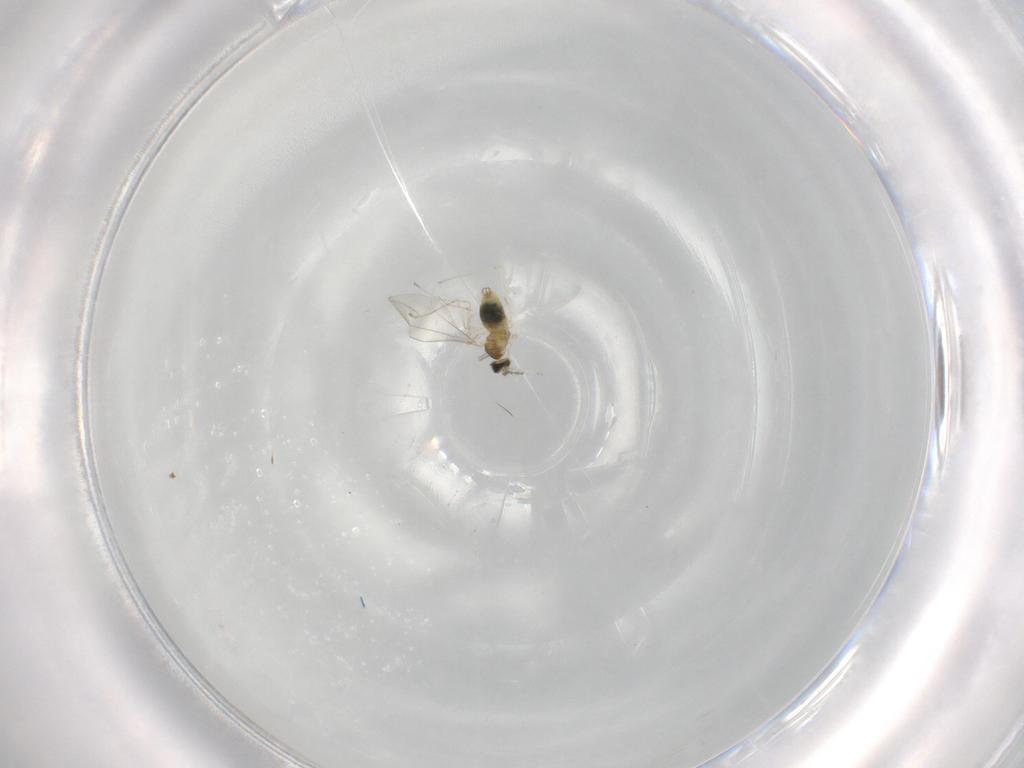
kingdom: Animalia
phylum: Arthropoda
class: Insecta
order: Diptera
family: Cecidomyiidae
